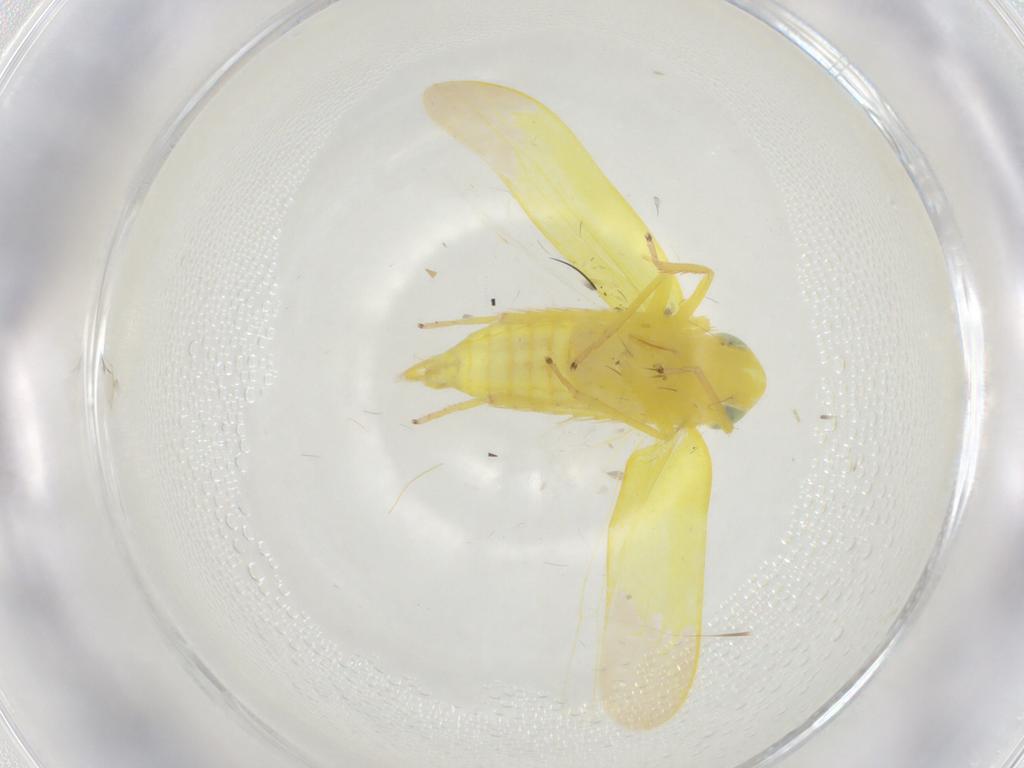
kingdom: Animalia
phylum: Arthropoda
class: Insecta
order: Hemiptera
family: Cicadellidae
